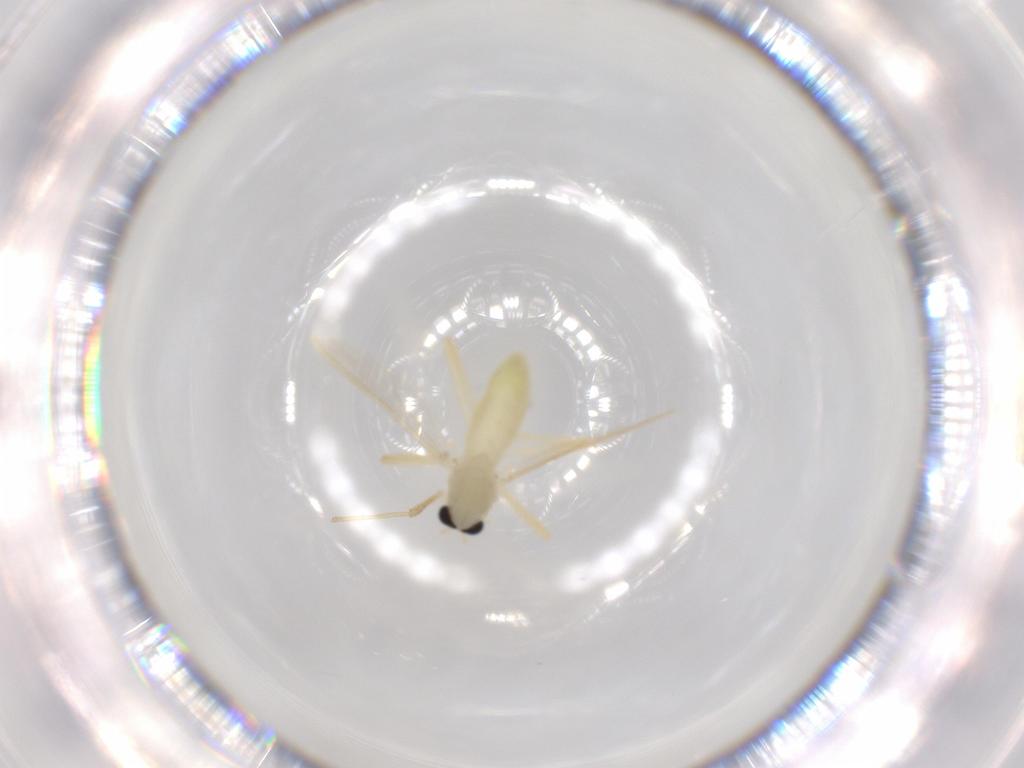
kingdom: Animalia
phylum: Arthropoda
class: Insecta
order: Diptera
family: Chironomidae
